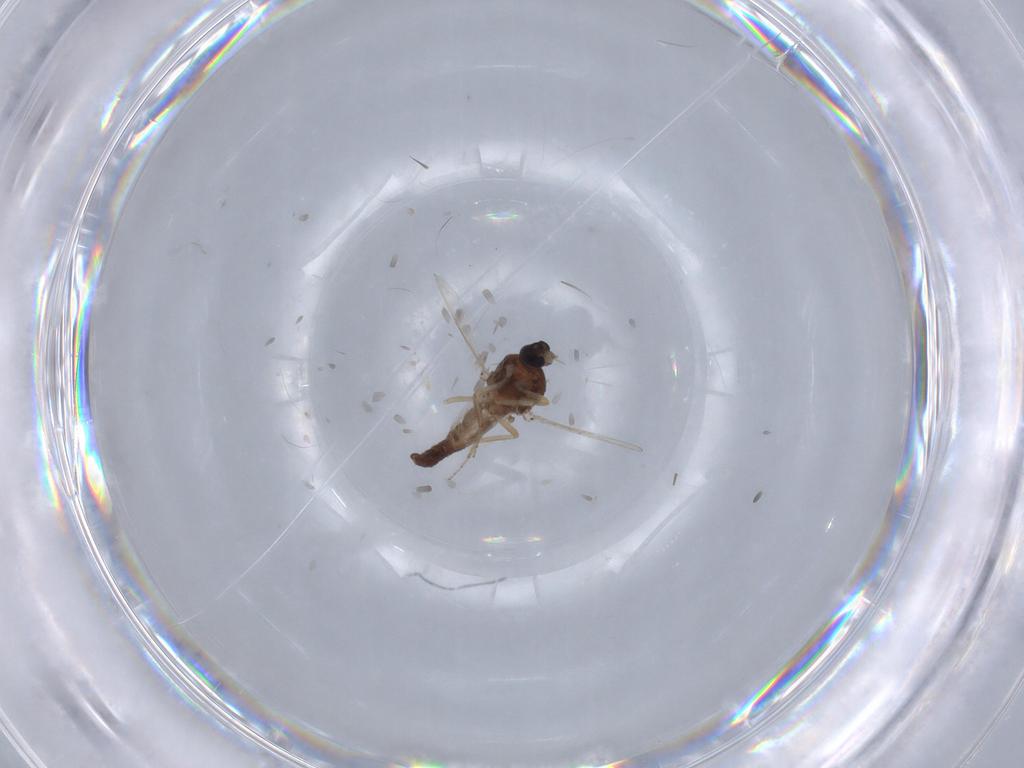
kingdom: Animalia
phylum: Arthropoda
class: Insecta
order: Diptera
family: Ceratopogonidae
